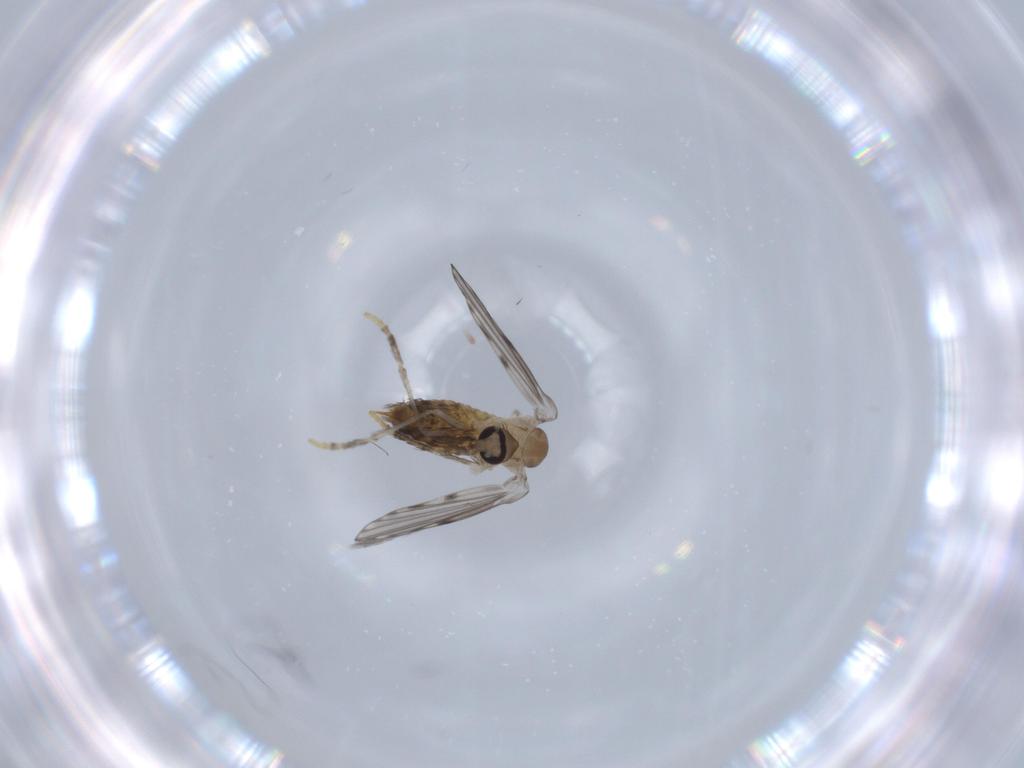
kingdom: Animalia
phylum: Arthropoda
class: Insecta
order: Diptera
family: Psychodidae
